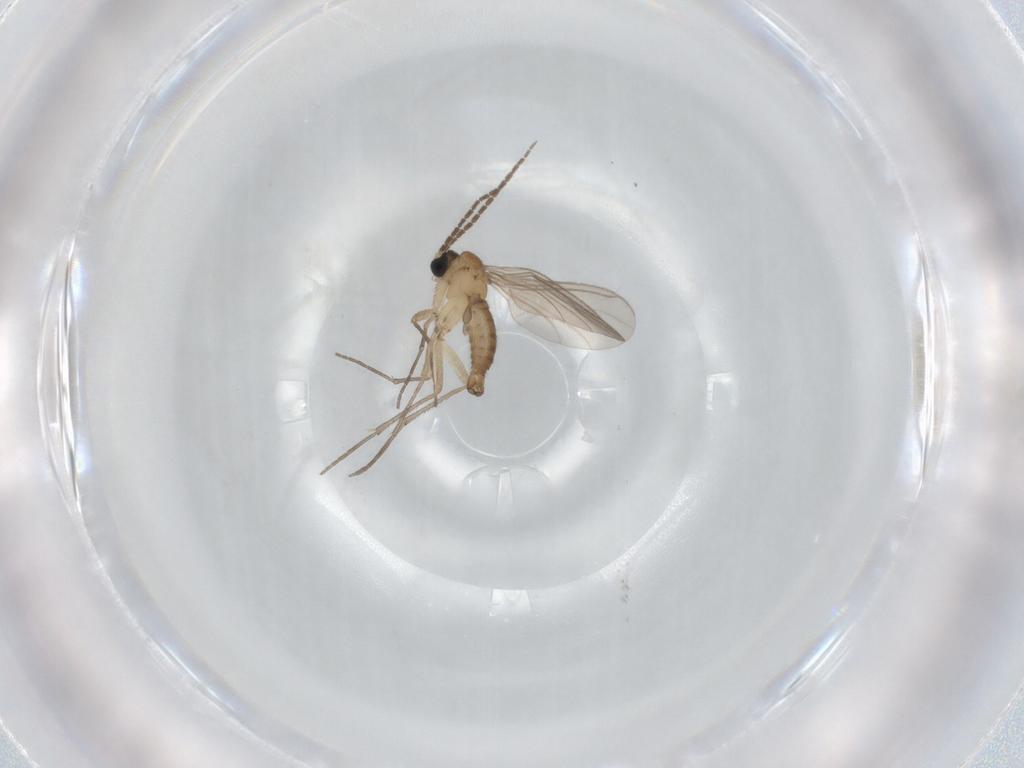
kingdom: Animalia
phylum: Arthropoda
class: Insecta
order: Diptera
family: Sciaridae
